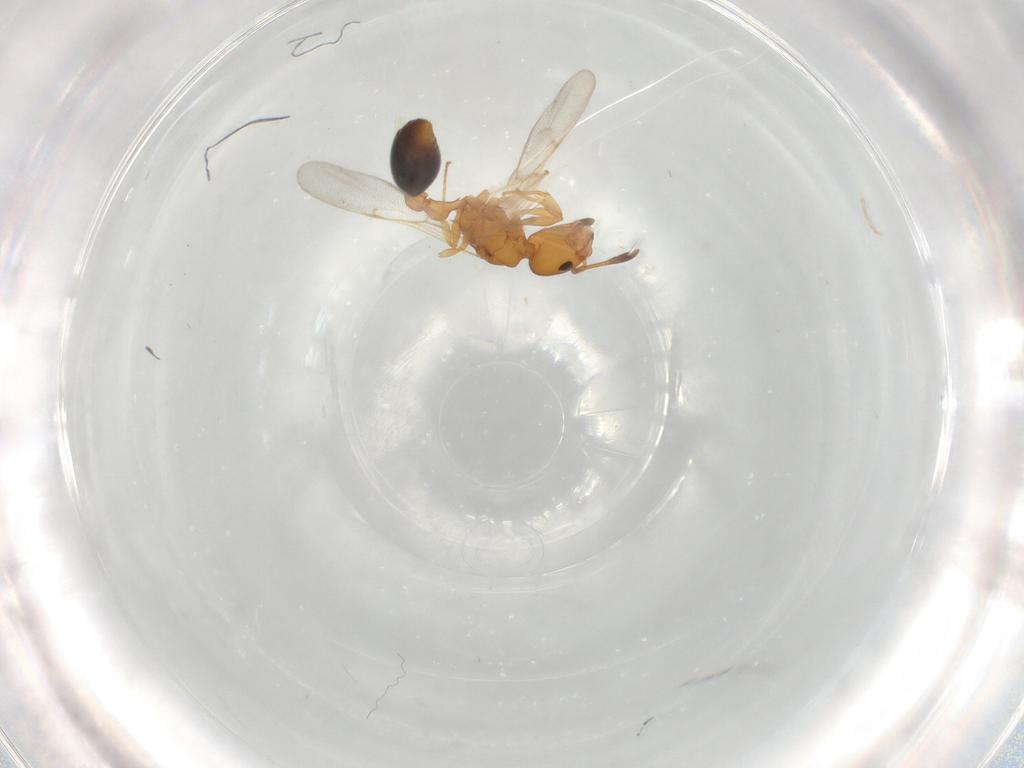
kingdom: Animalia
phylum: Arthropoda
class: Insecta
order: Hymenoptera
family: Formicidae
